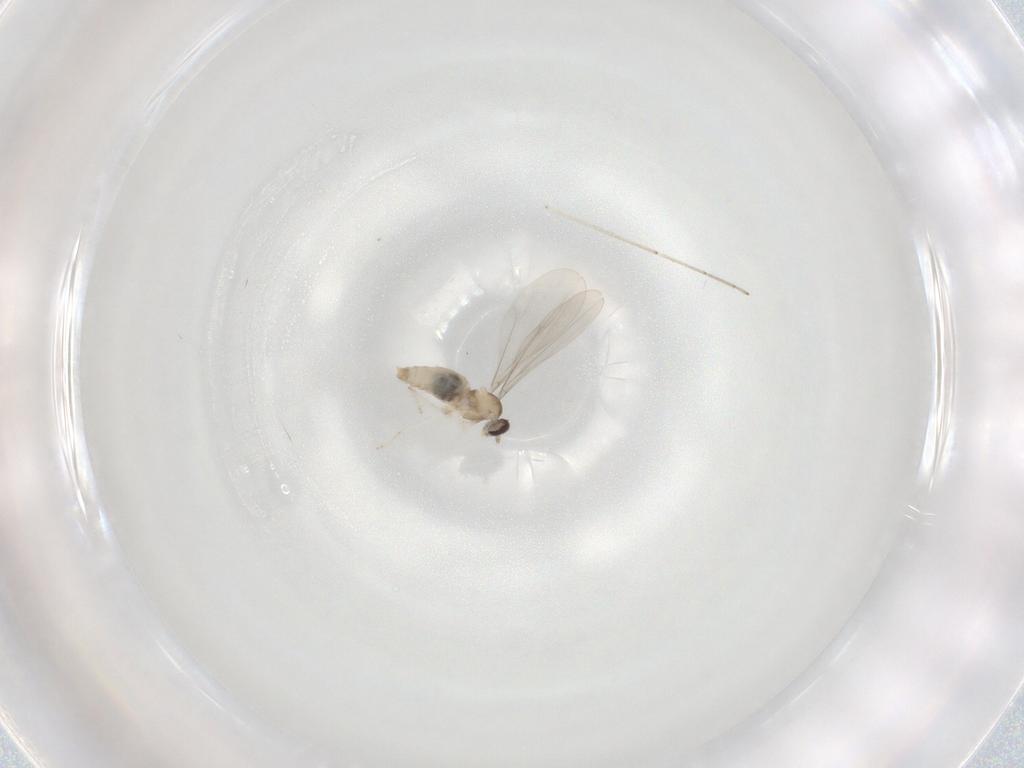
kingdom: Animalia
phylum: Arthropoda
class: Insecta
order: Diptera
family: Cecidomyiidae
